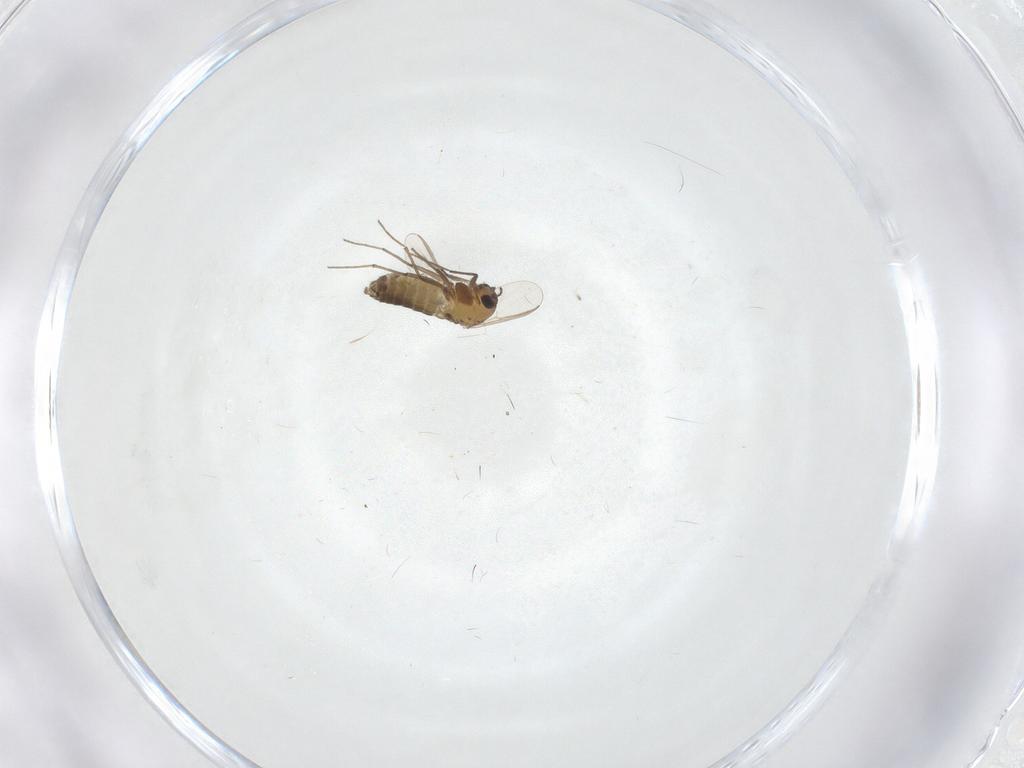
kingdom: Animalia
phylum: Arthropoda
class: Insecta
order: Diptera
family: Chironomidae
